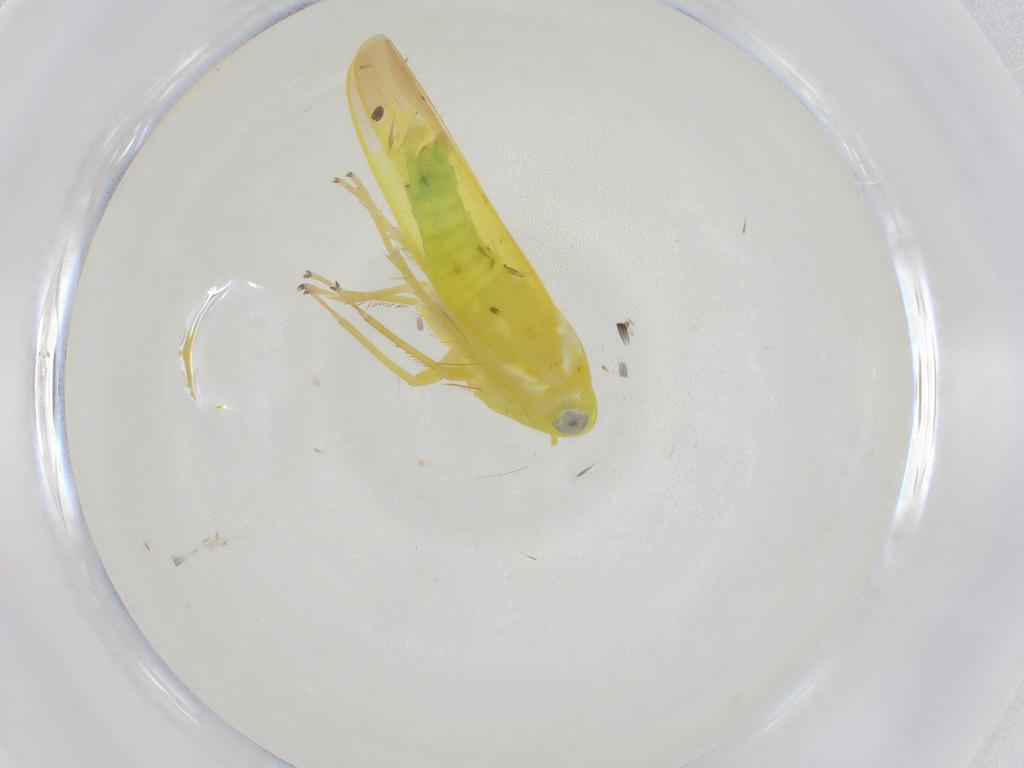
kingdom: Animalia
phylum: Arthropoda
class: Insecta
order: Hemiptera
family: Cicadellidae
